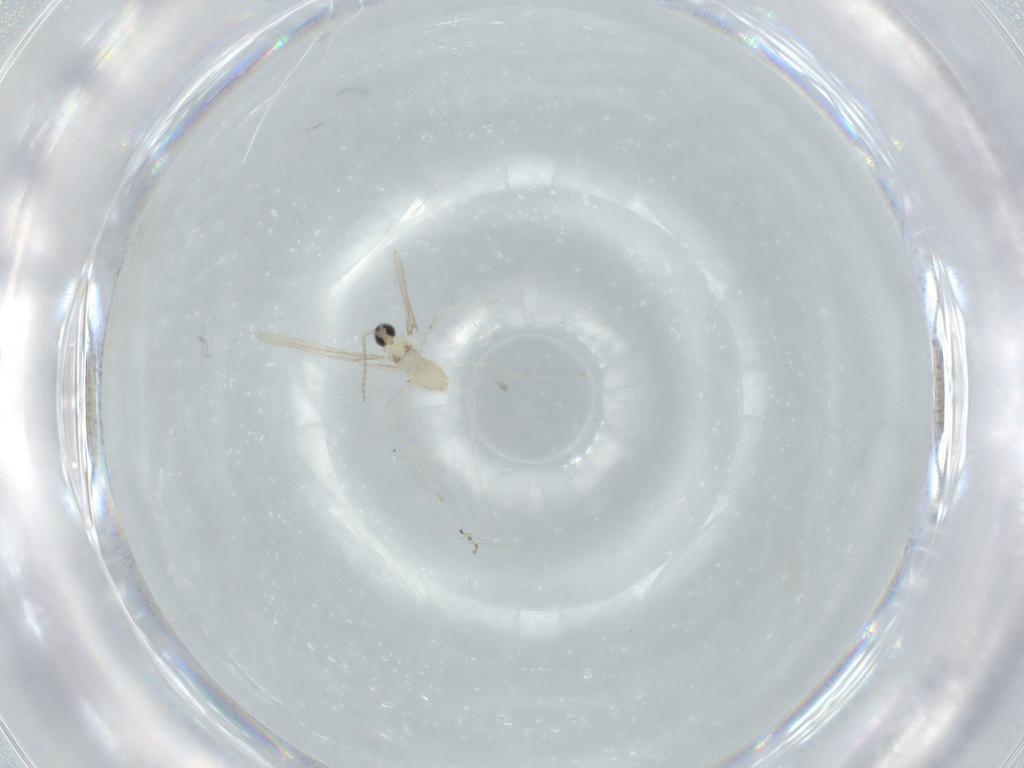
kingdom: Animalia
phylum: Arthropoda
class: Insecta
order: Diptera
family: Cecidomyiidae
